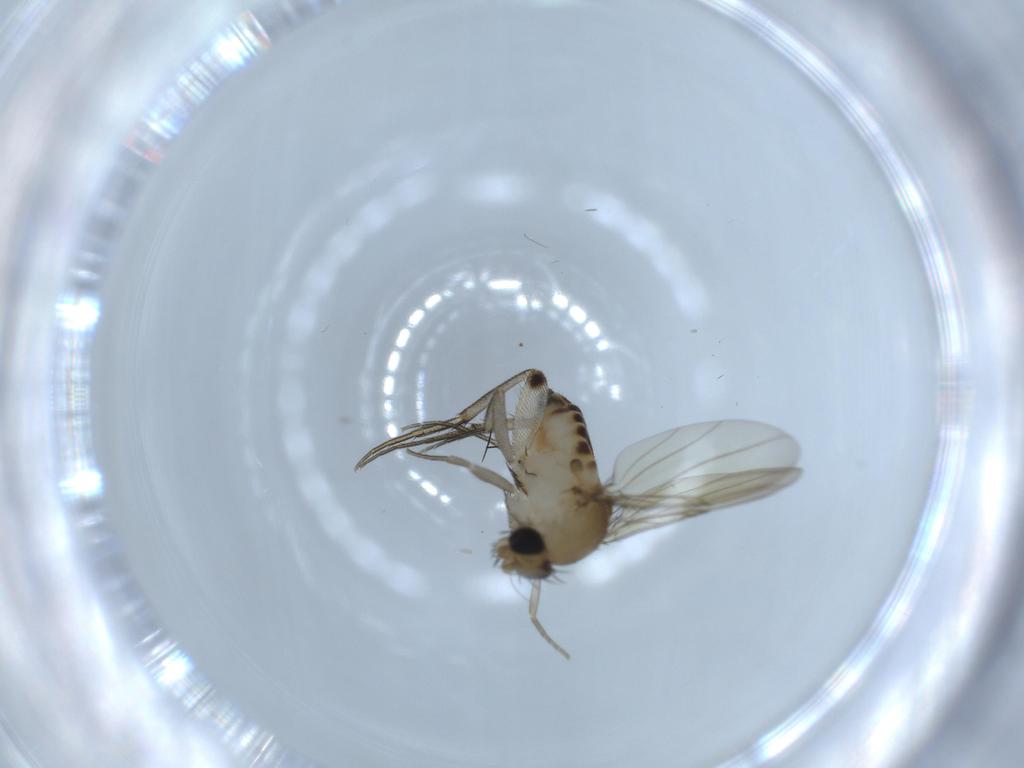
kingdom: Animalia
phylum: Arthropoda
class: Insecta
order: Diptera
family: Phoridae
